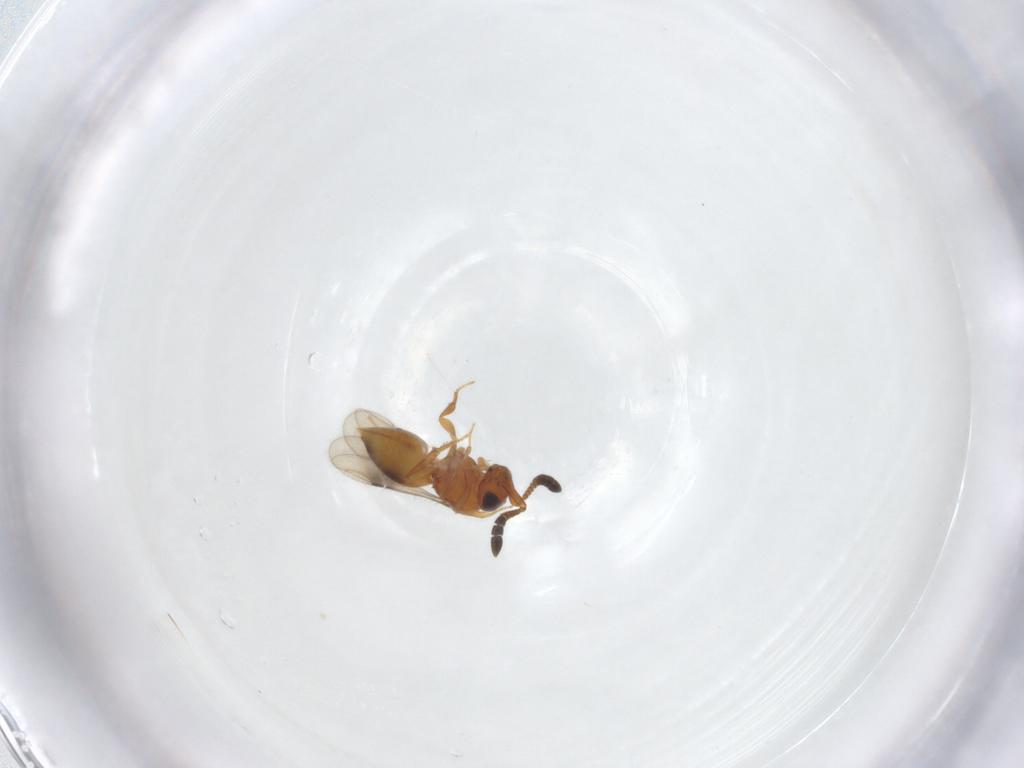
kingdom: Animalia
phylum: Arthropoda
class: Insecta
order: Hymenoptera
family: Ceraphronidae
